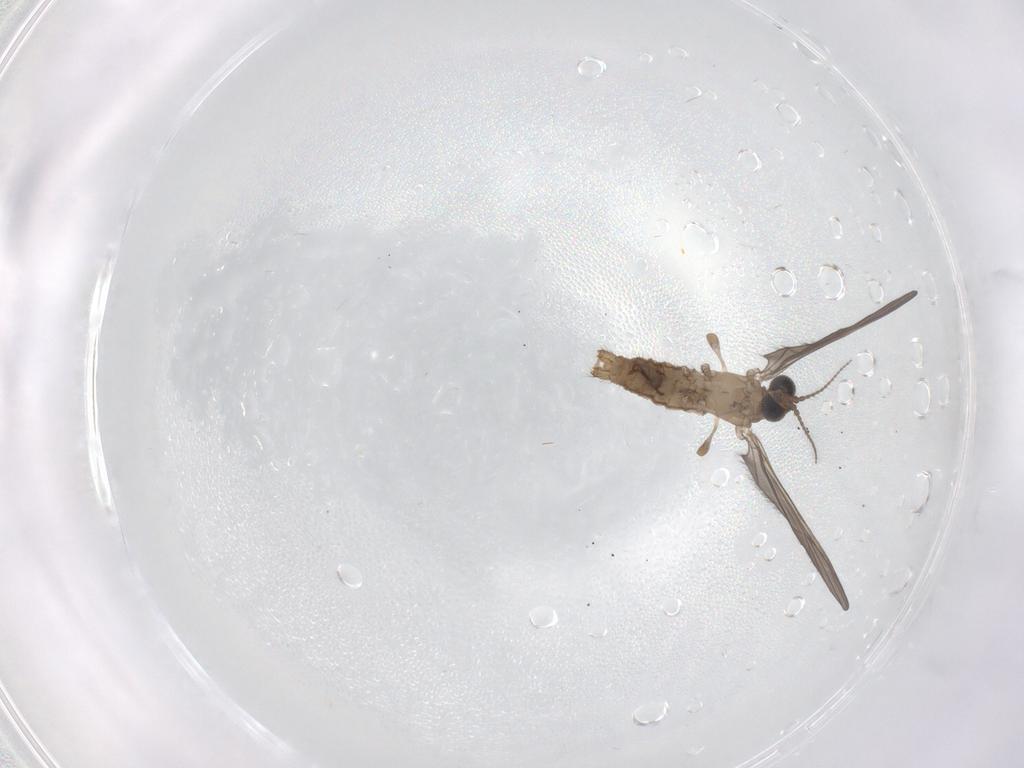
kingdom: Animalia
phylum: Arthropoda
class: Insecta
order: Diptera
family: Limoniidae
